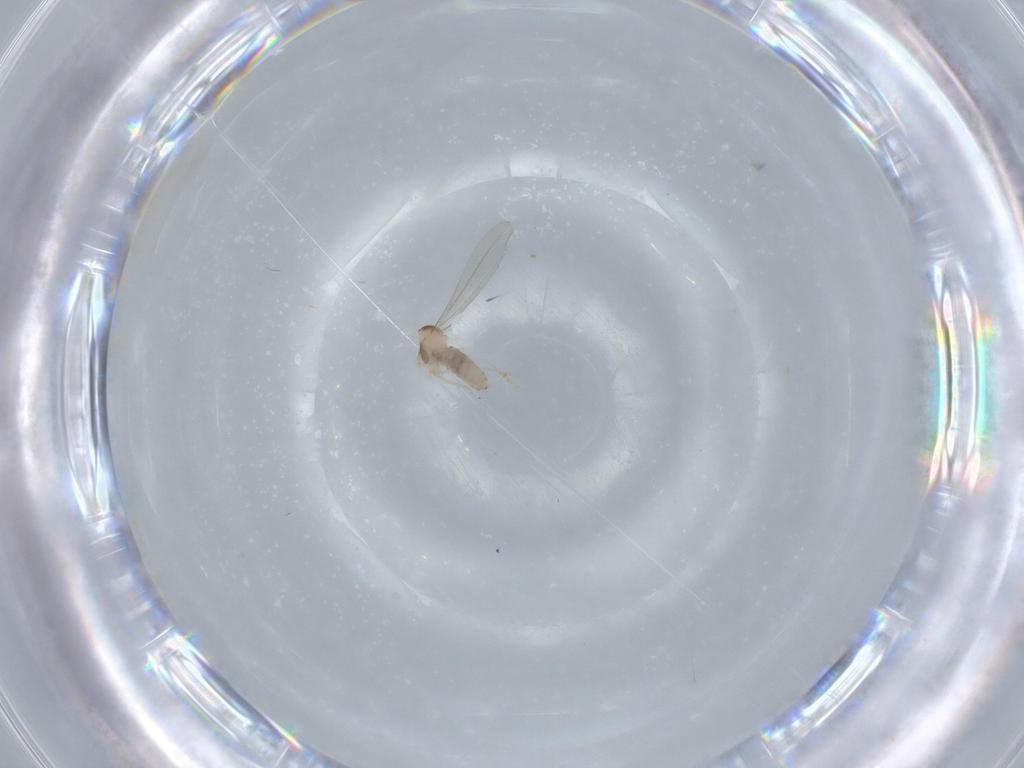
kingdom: Animalia
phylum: Arthropoda
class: Insecta
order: Diptera
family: Cecidomyiidae
